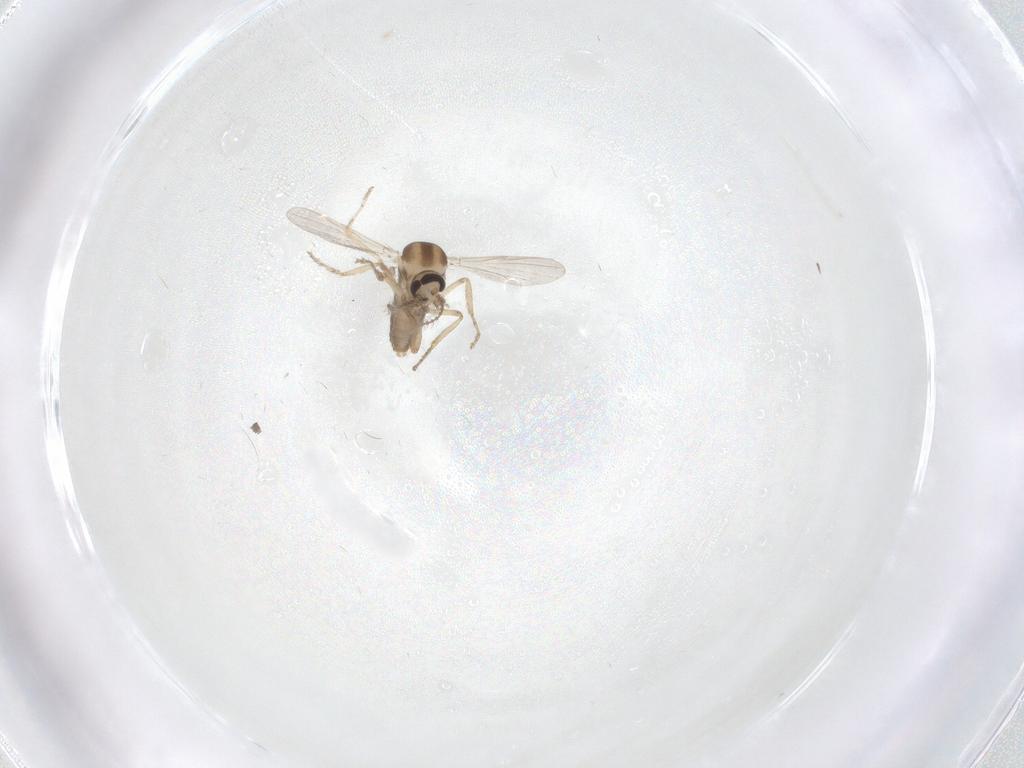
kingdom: Animalia
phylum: Arthropoda
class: Insecta
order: Diptera
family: Ceratopogonidae
